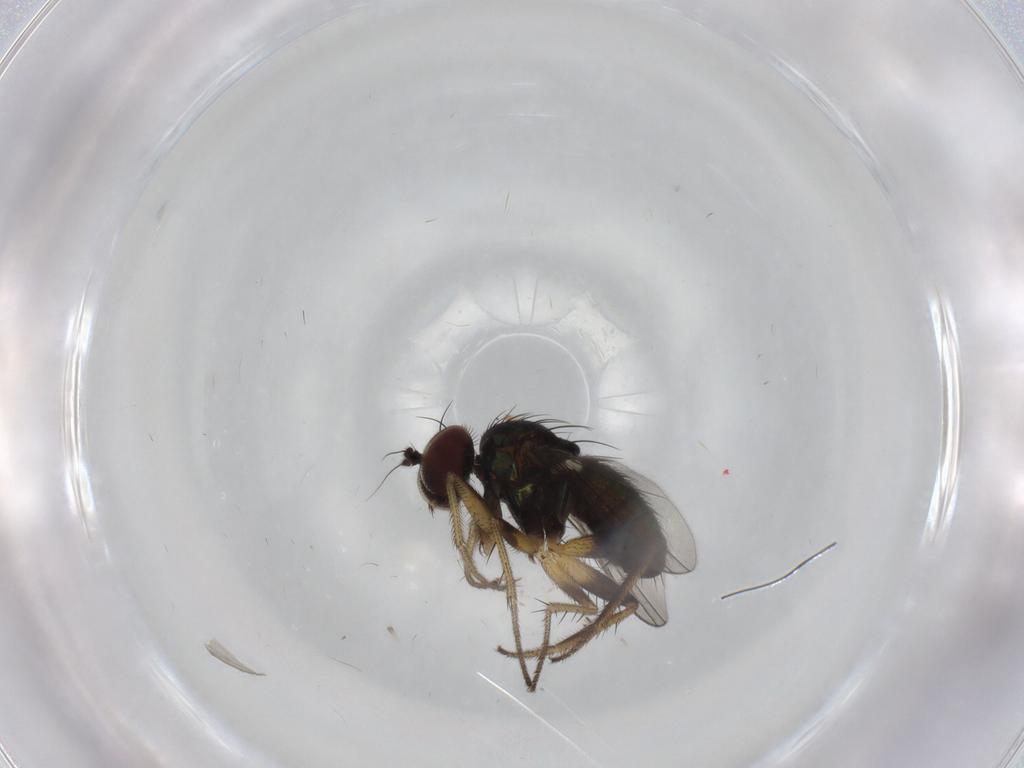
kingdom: Animalia
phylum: Arthropoda
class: Insecta
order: Diptera
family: Dolichopodidae
